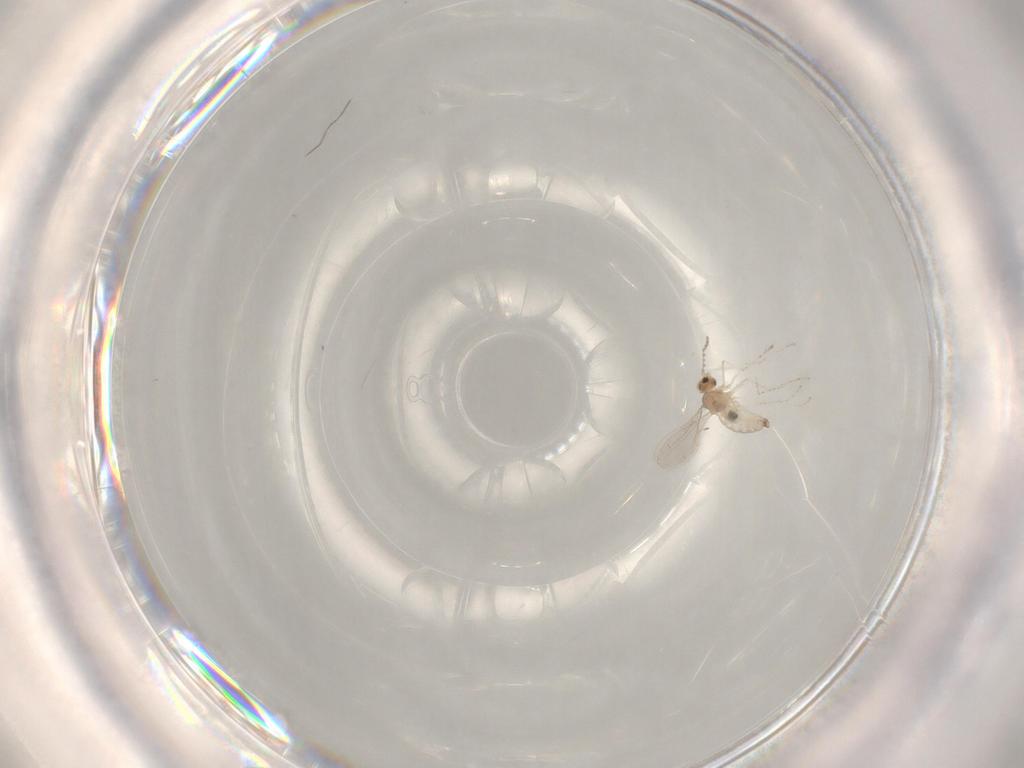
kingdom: Animalia
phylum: Arthropoda
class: Insecta
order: Diptera
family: Cecidomyiidae
